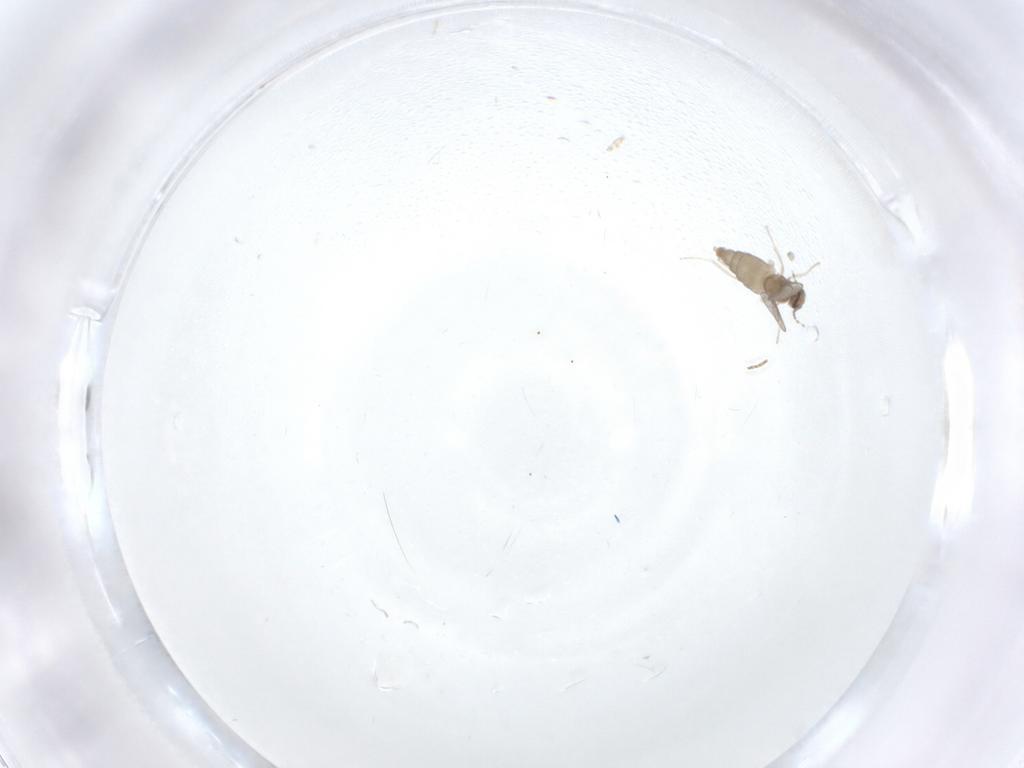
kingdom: Animalia
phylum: Arthropoda
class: Insecta
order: Diptera
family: Cecidomyiidae
